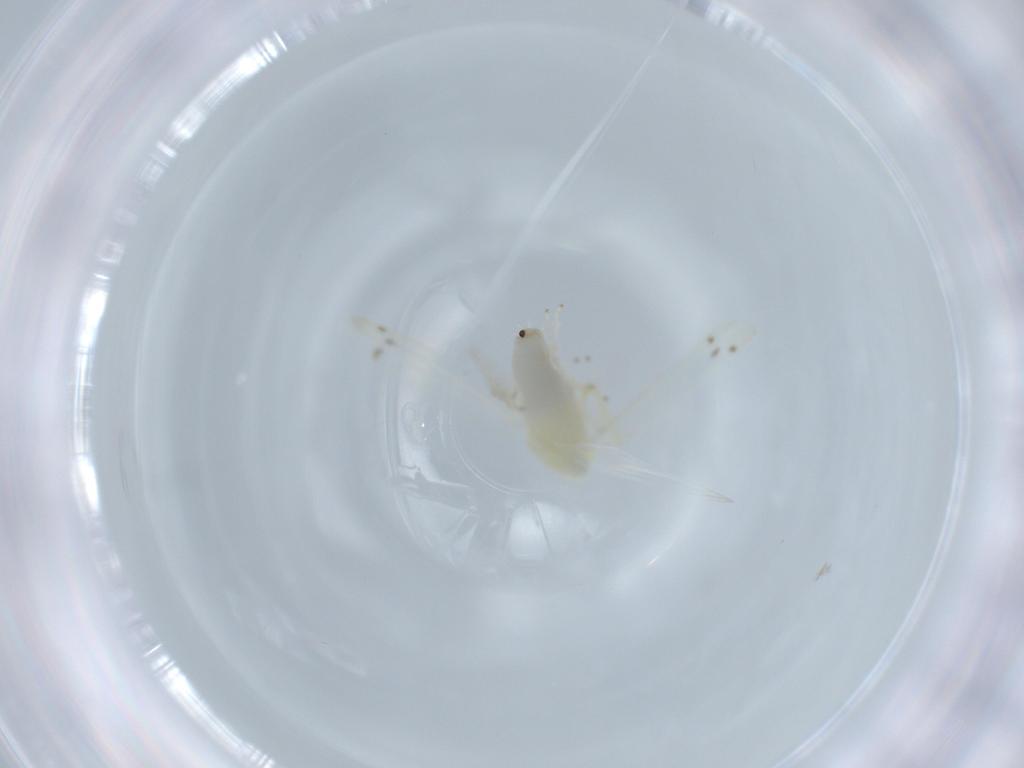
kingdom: Animalia
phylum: Arthropoda
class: Insecta
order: Hemiptera
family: Cicadellidae
